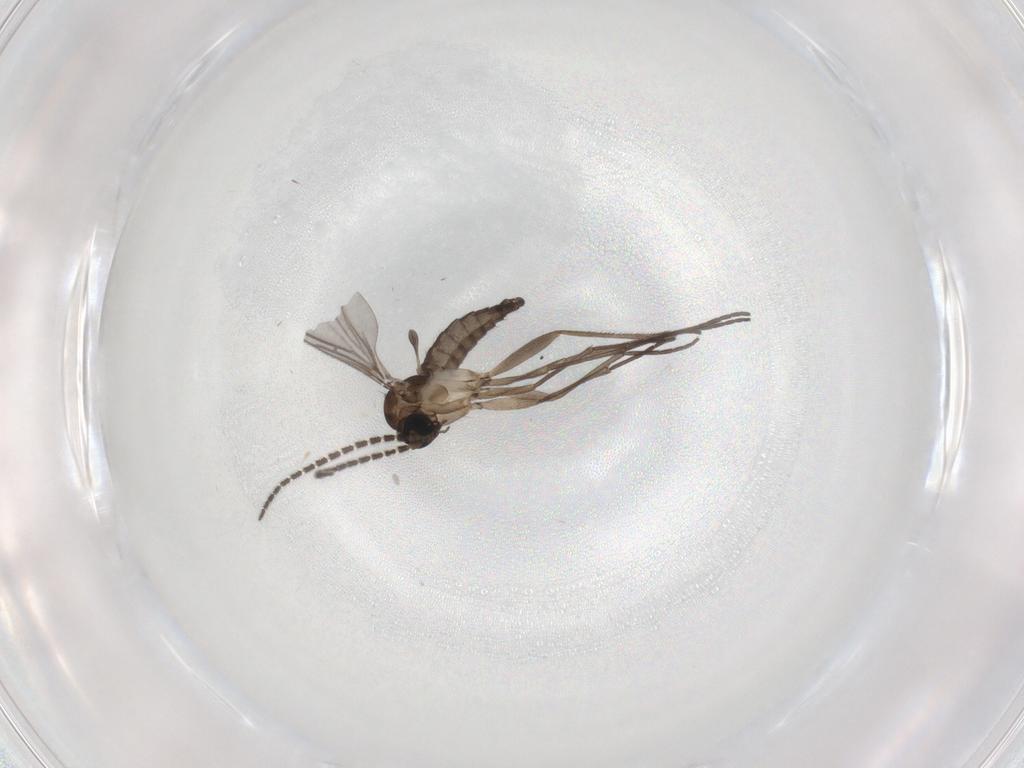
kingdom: Animalia
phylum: Arthropoda
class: Insecta
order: Diptera
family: Sciaridae
